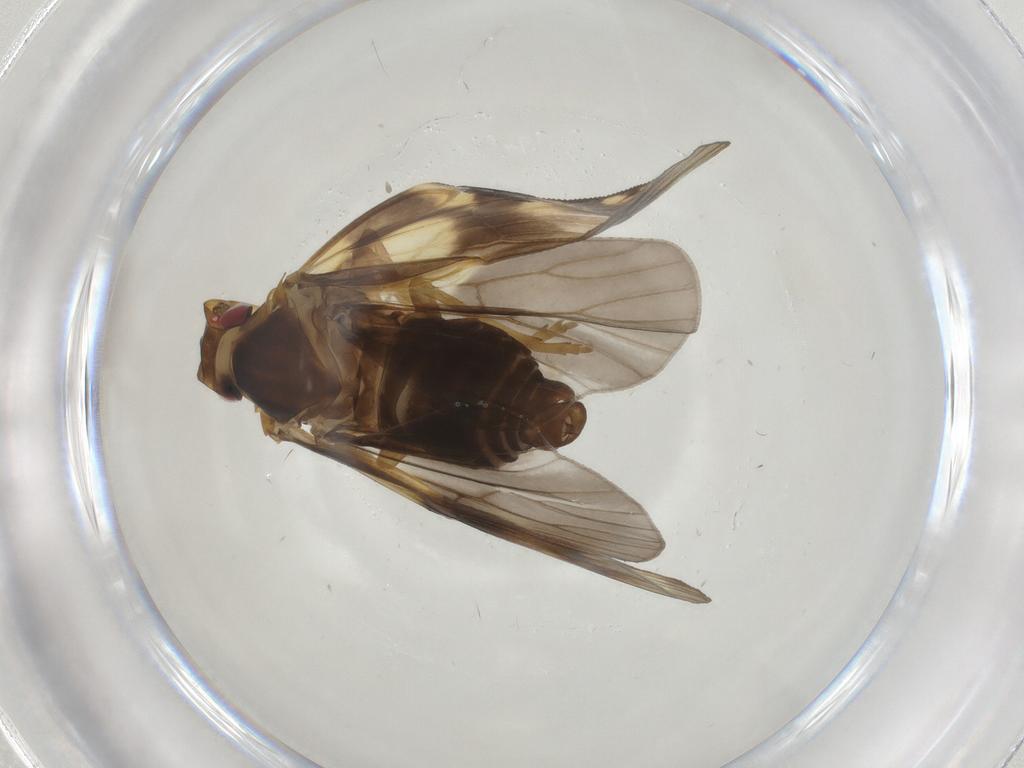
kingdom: Animalia
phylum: Arthropoda
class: Insecta
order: Hemiptera
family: Cixiidae
